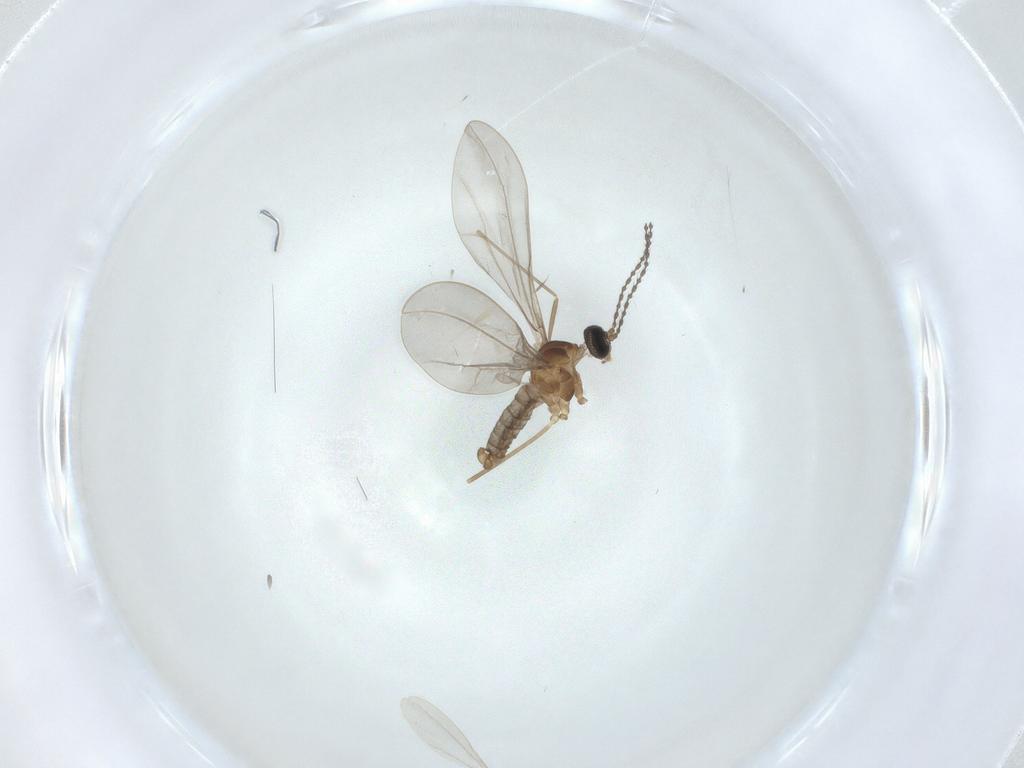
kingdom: Animalia
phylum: Arthropoda
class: Insecta
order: Diptera
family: Cecidomyiidae
